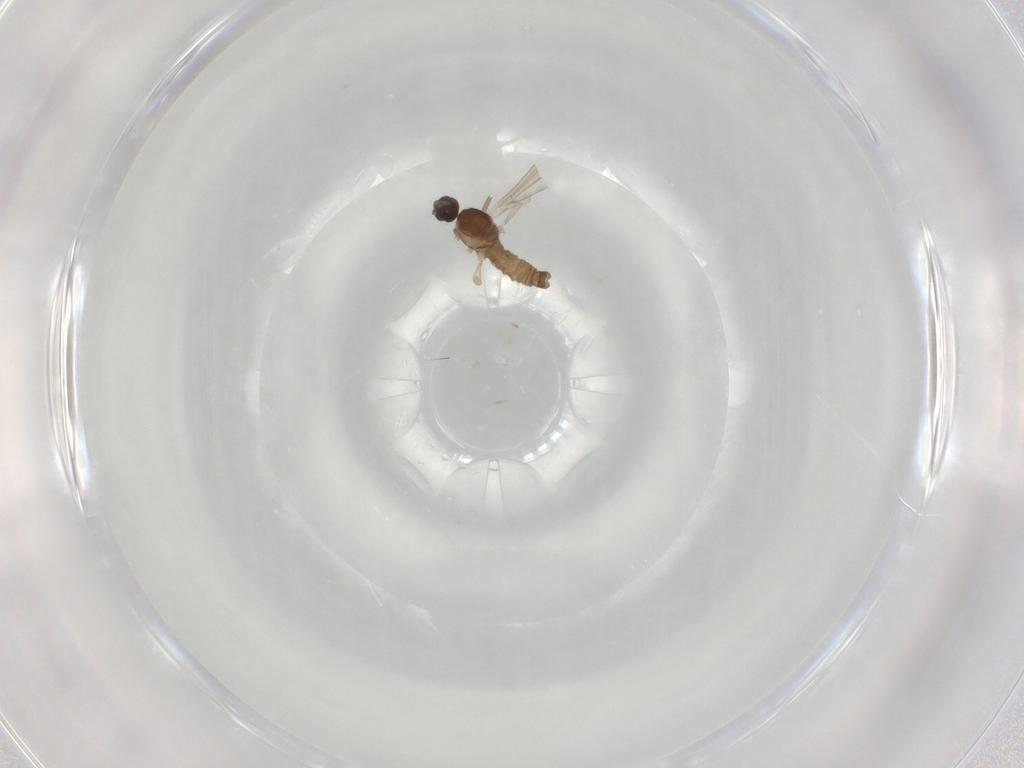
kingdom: Animalia
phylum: Arthropoda
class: Insecta
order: Diptera
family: Cecidomyiidae
